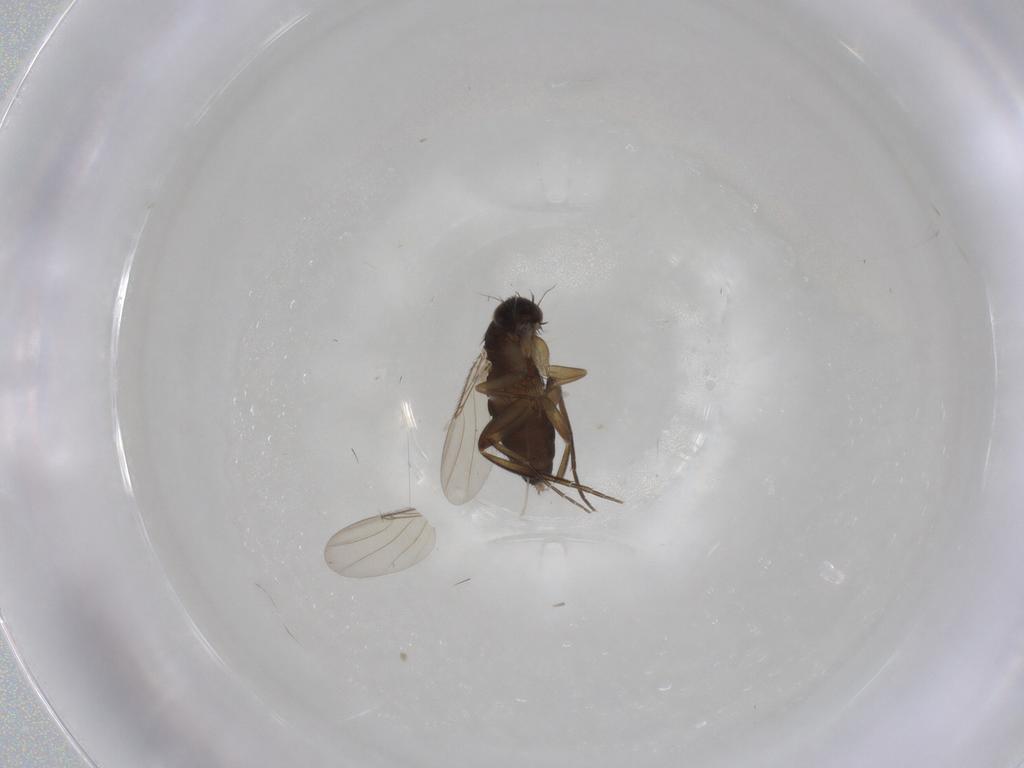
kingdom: Animalia
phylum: Arthropoda
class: Insecta
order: Diptera
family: Phoridae
